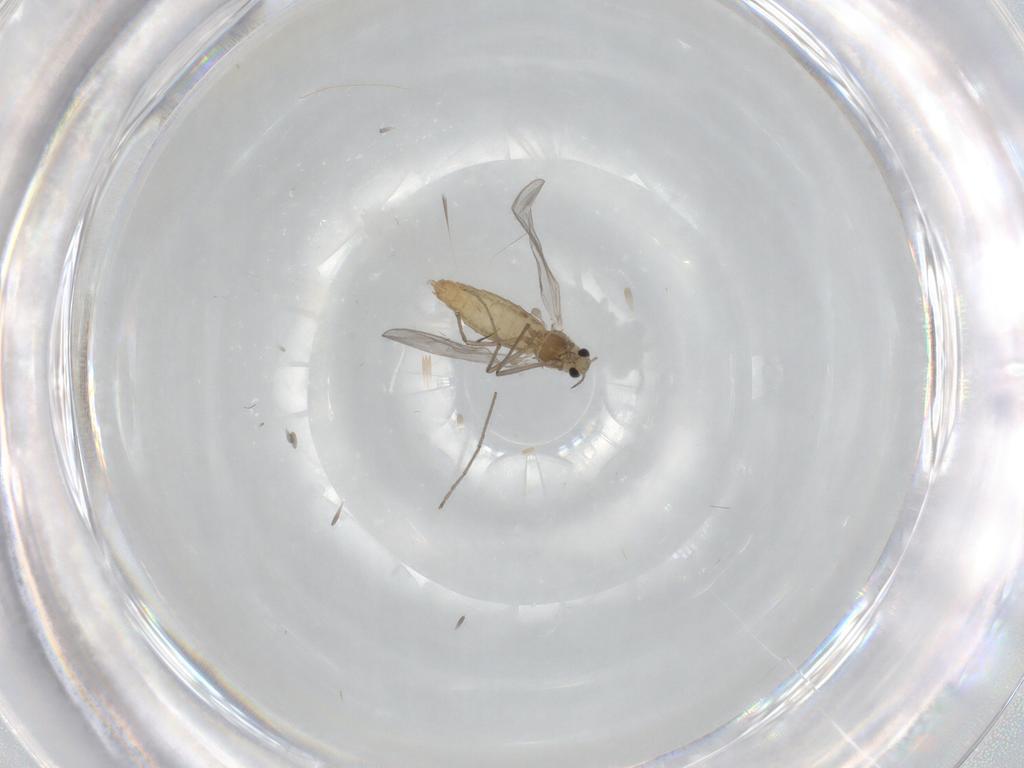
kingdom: Animalia
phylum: Arthropoda
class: Insecta
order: Diptera
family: Chironomidae
